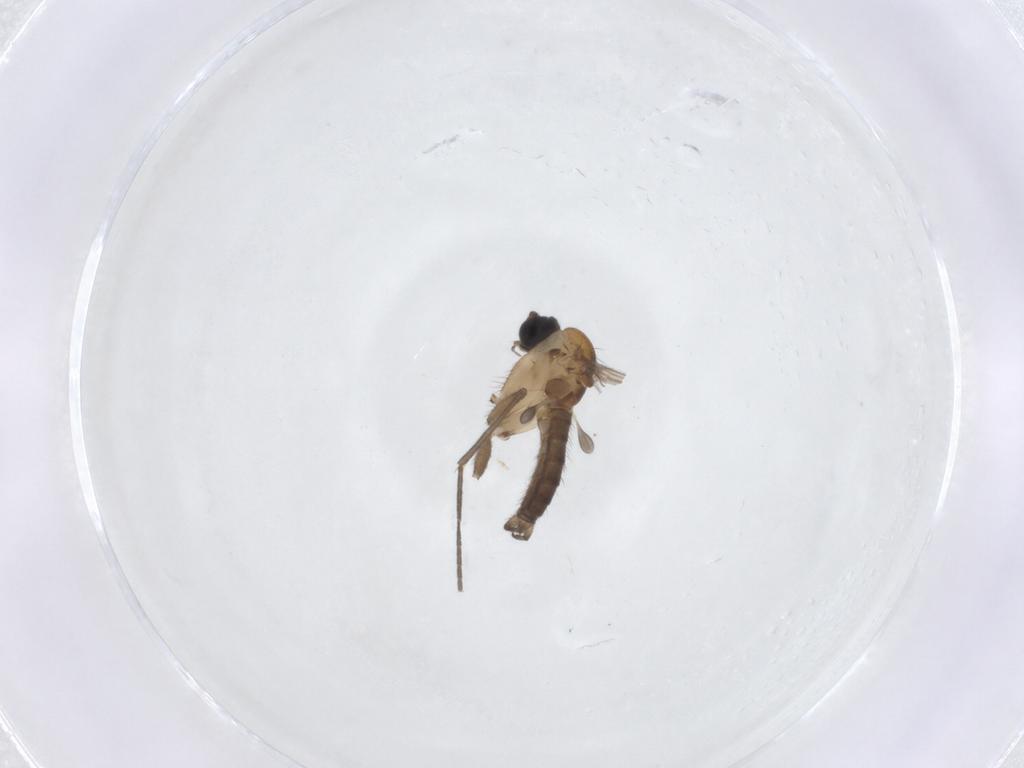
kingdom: Animalia
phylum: Arthropoda
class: Insecta
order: Diptera
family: Sciaridae
